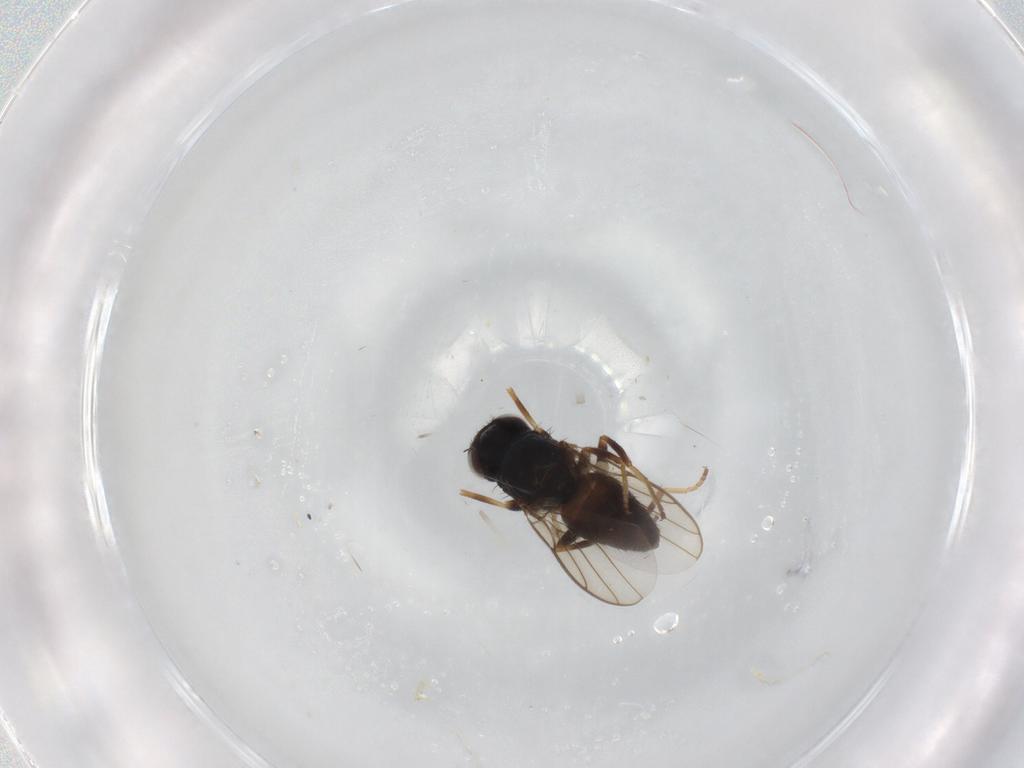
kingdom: Animalia
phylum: Arthropoda
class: Insecta
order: Diptera
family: Chloropidae
